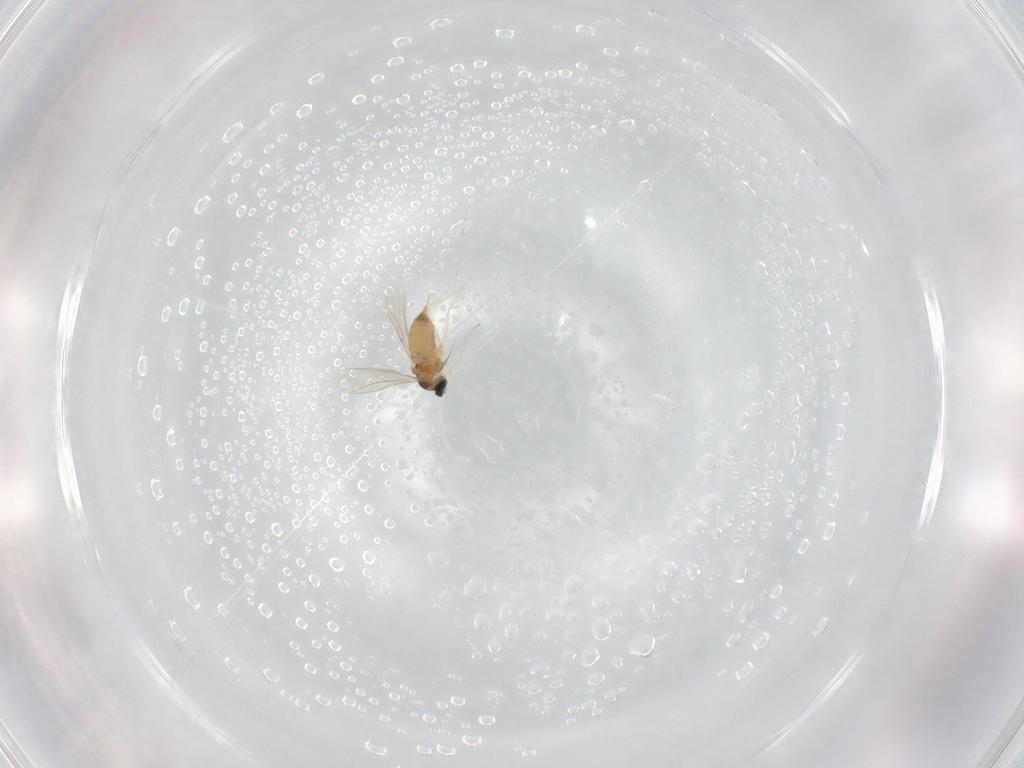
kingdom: Animalia
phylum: Arthropoda
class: Insecta
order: Diptera
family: Cecidomyiidae
